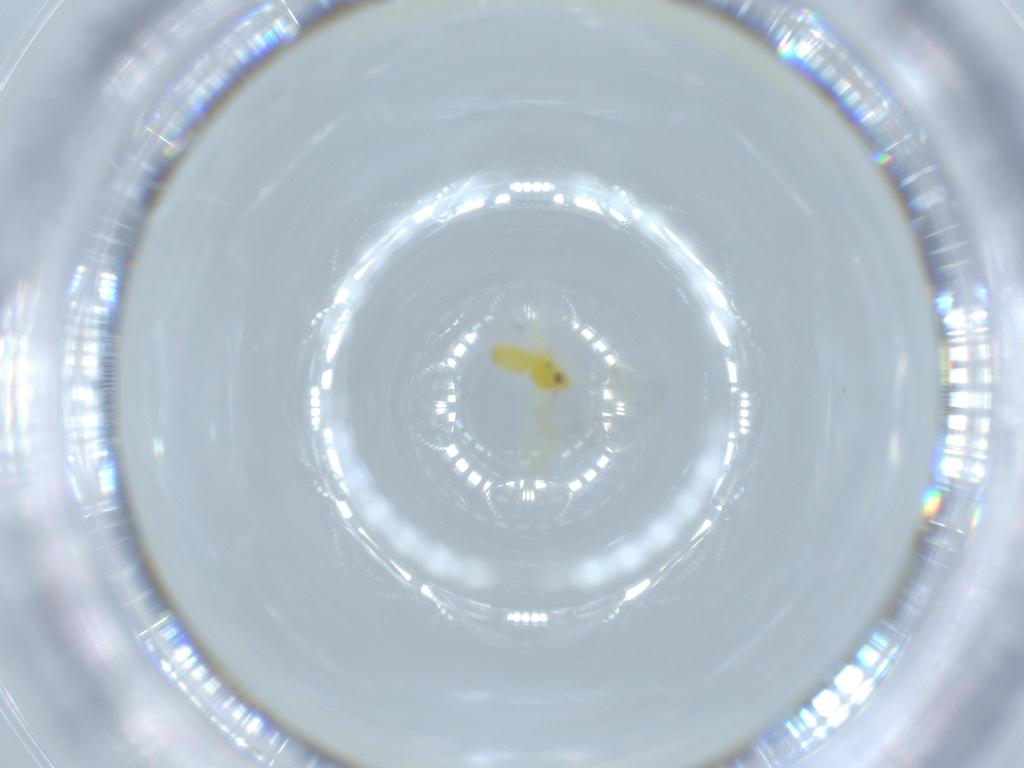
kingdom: Animalia
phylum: Arthropoda
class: Insecta
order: Hemiptera
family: Aleyrodidae
